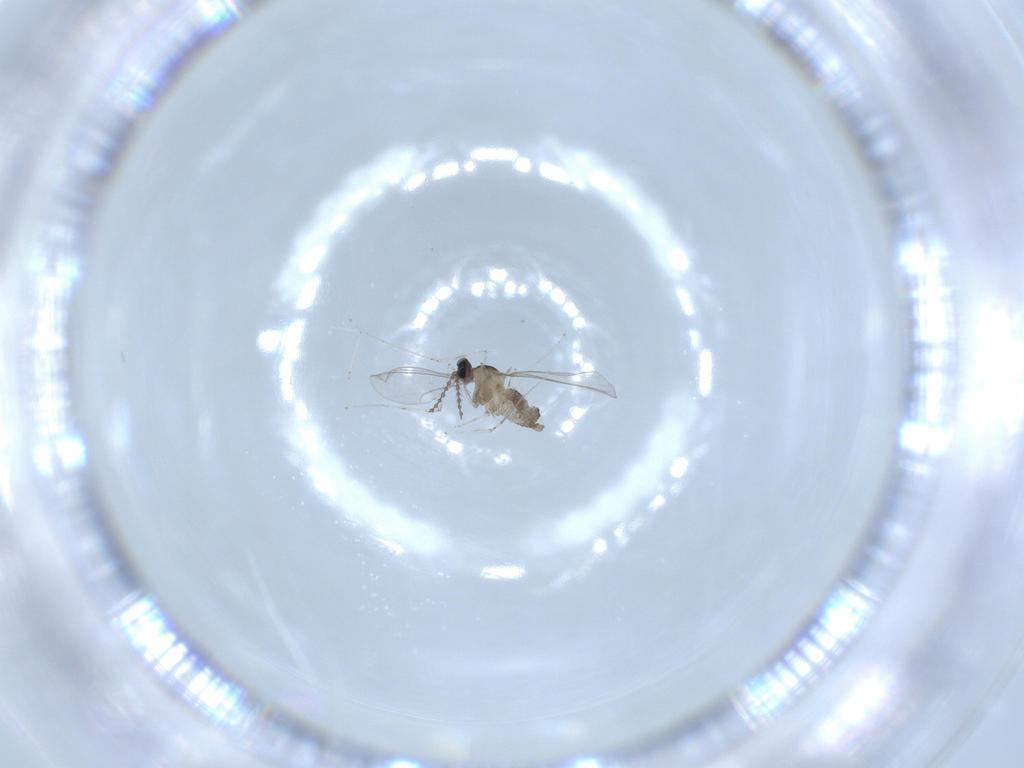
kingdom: Animalia
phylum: Arthropoda
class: Insecta
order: Diptera
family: Cecidomyiidae
